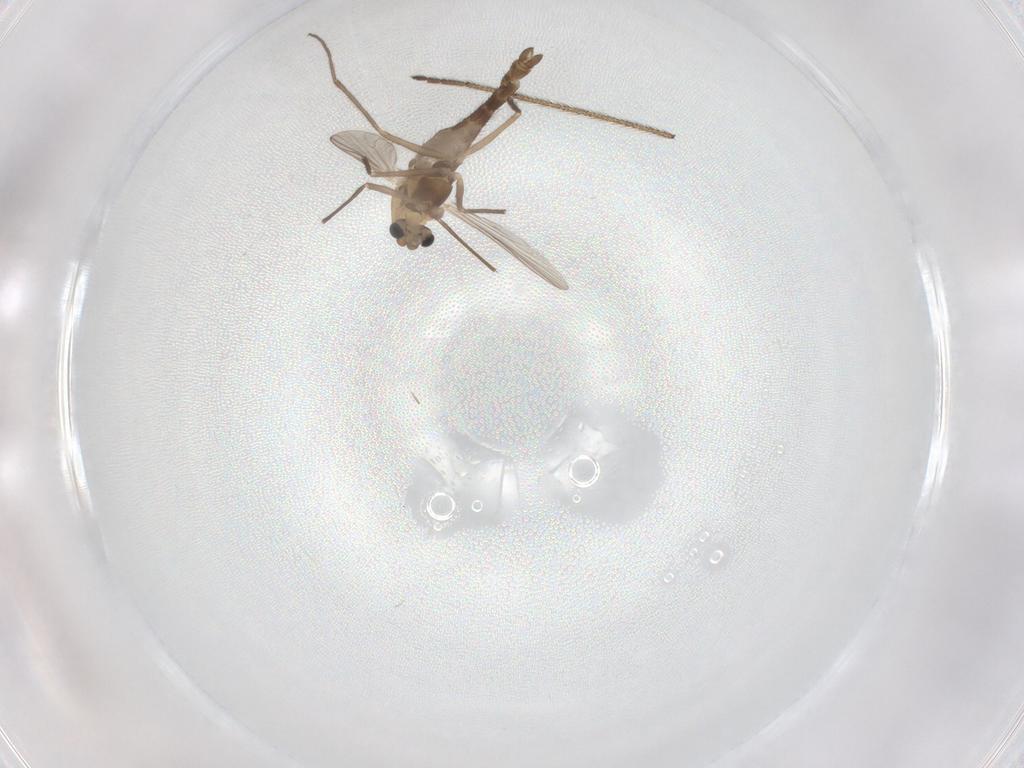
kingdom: Animalia
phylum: Arthropoda
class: Insecta
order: Diptera
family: Chironomidae
